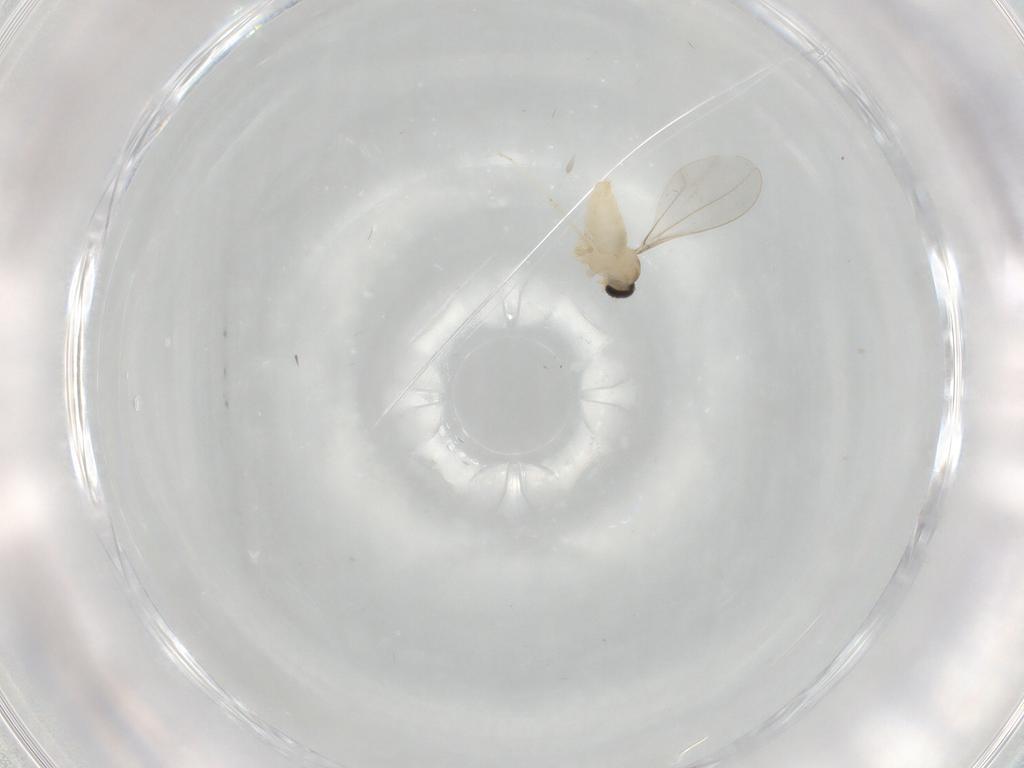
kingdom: Animalia
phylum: Arthropoda
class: Insecta
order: Diptera
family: Cecidomyiidae
